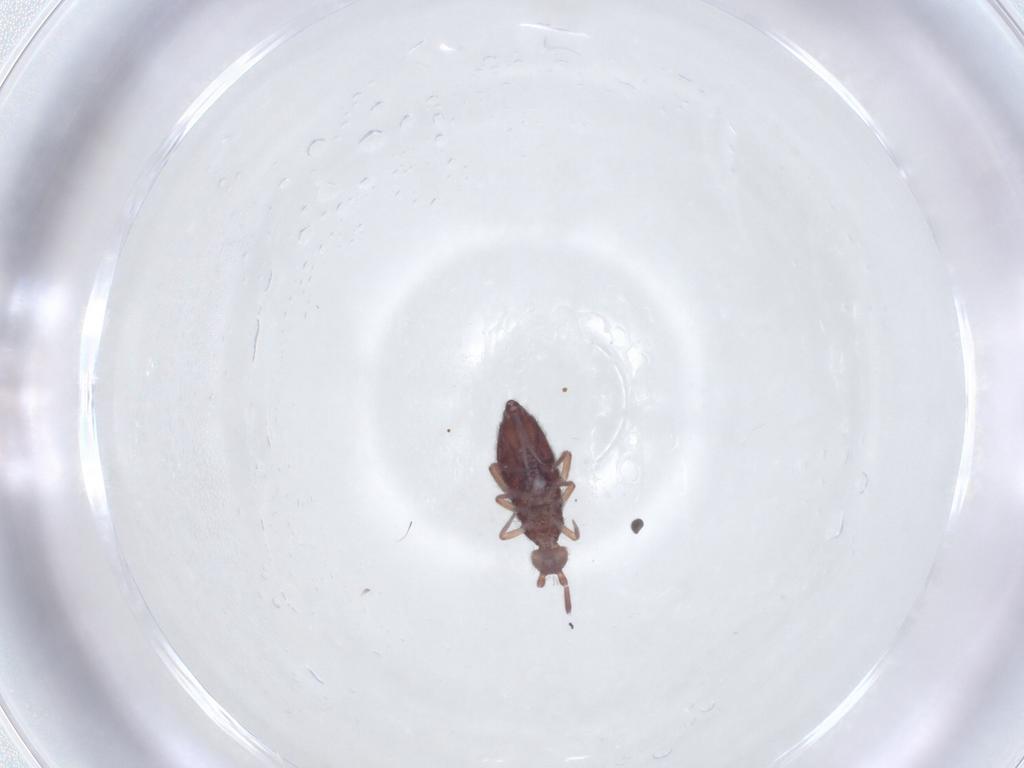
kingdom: Animalia
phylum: Arthropoda
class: Collembola
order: Entomobryomorpha
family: Entomobryidae
